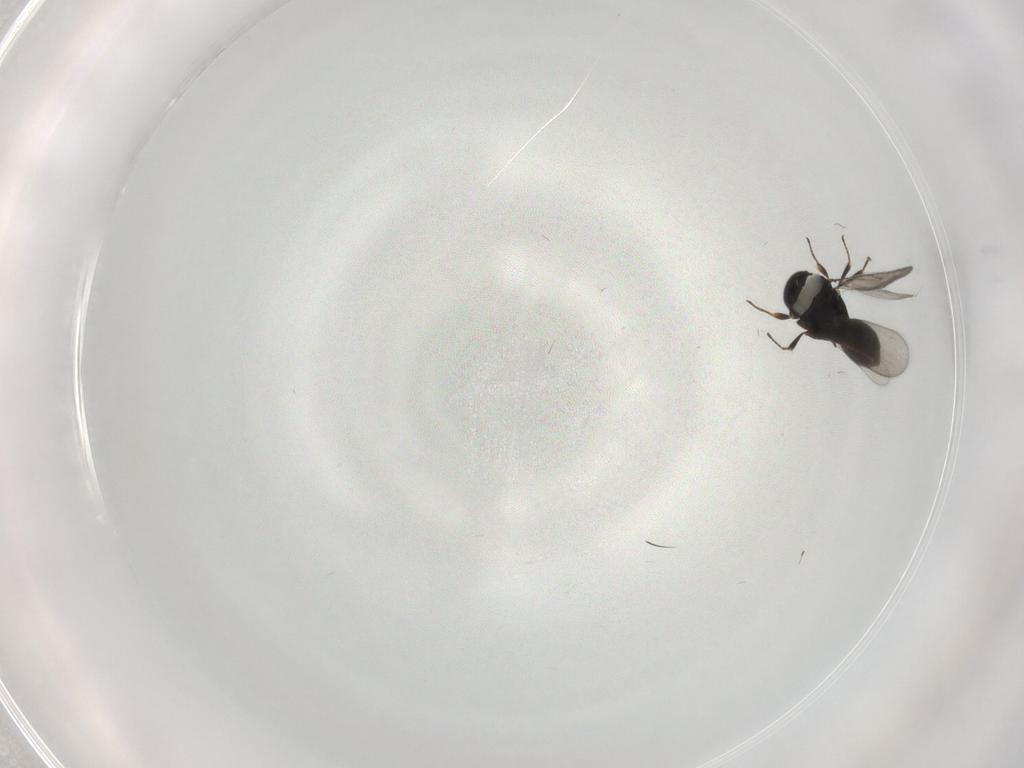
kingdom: Animalia
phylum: Arthropoda
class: Insecta
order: Hymenoptera
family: Scelionidae
